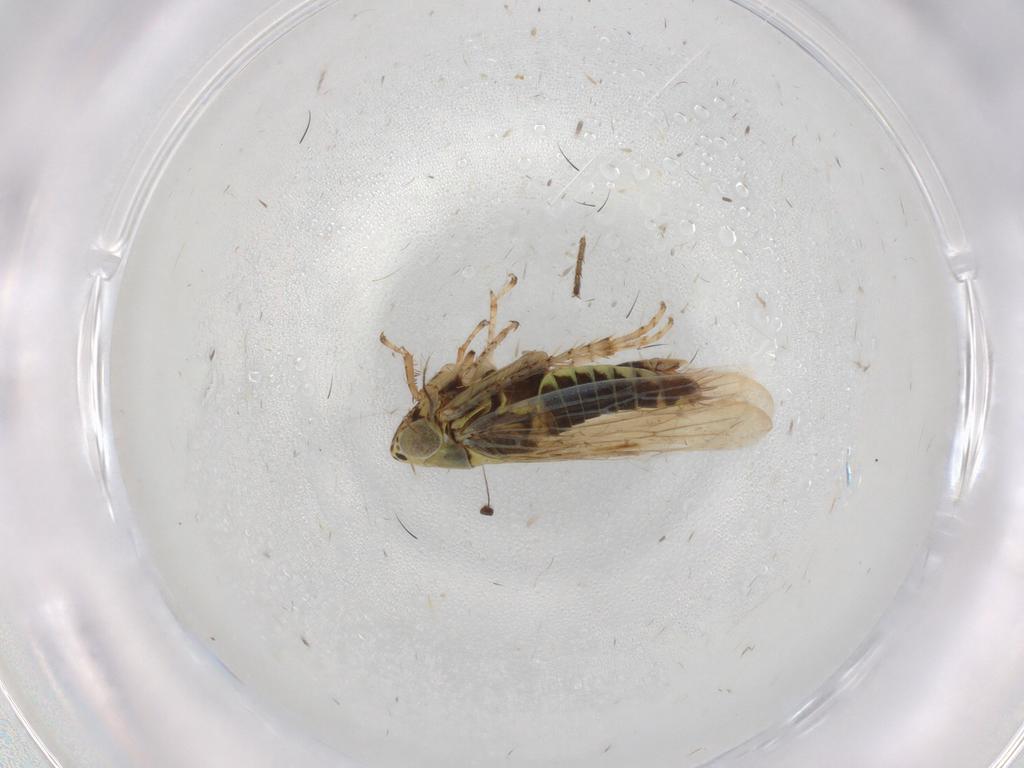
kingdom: Animalia
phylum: Arthropoda
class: Insecta
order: Hemiptera
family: Cicadellidae
